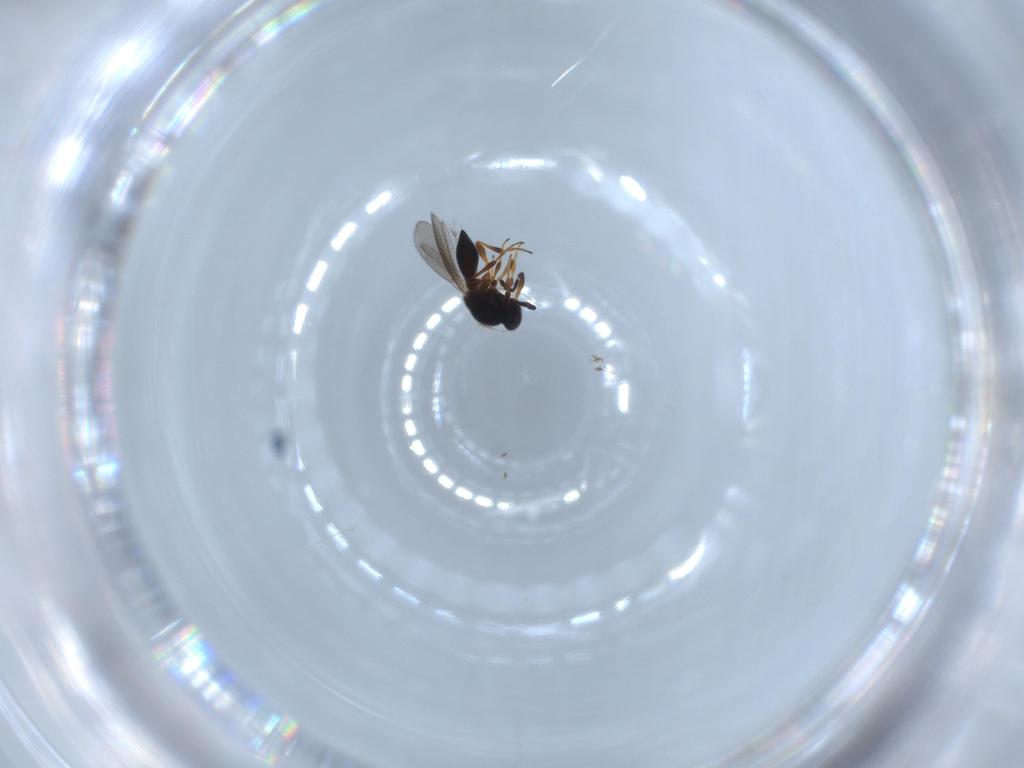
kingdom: Animalia
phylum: Arthropoda
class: Insecta
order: Hymenoptera
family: Platygastridae
